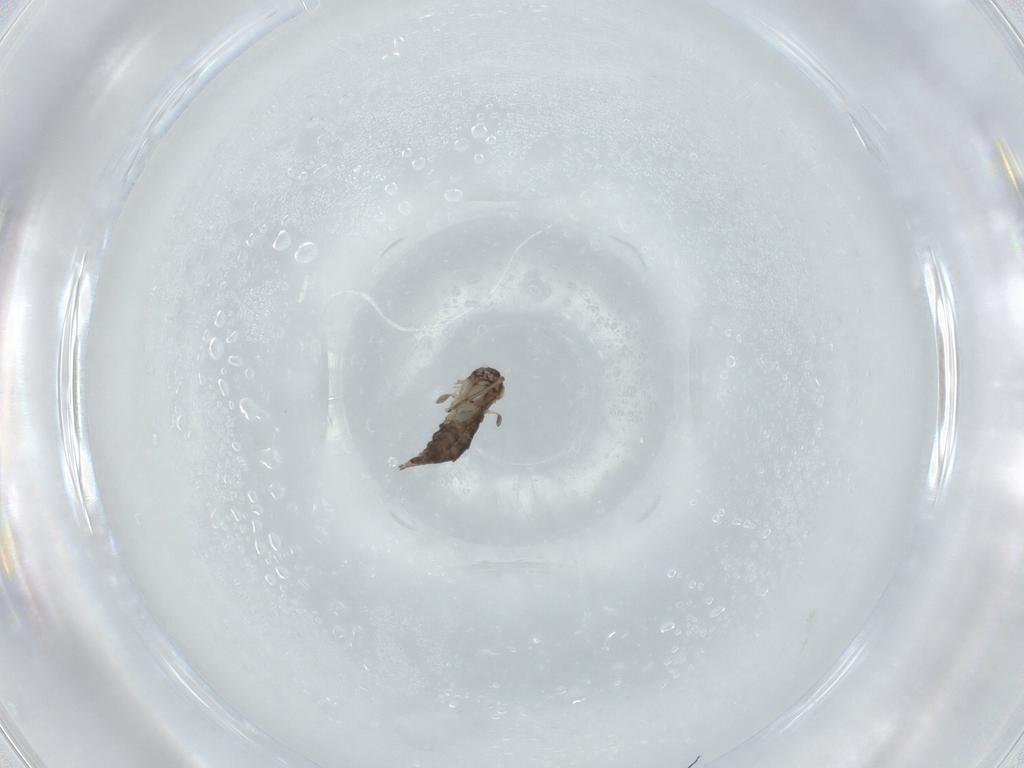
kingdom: Animalia
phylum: Arthropoda
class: Insecta
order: Diptera
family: Sciaridae
